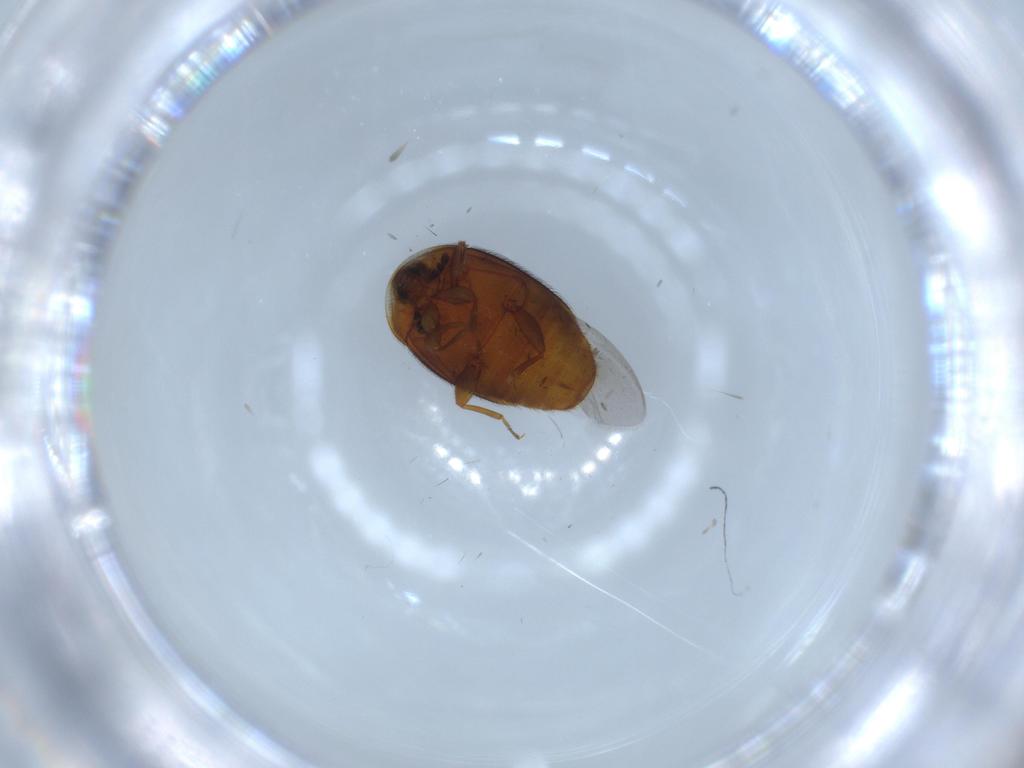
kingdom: Animalia
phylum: Arthropoda
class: Insecta
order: Coleoptera
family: Corylophidae
